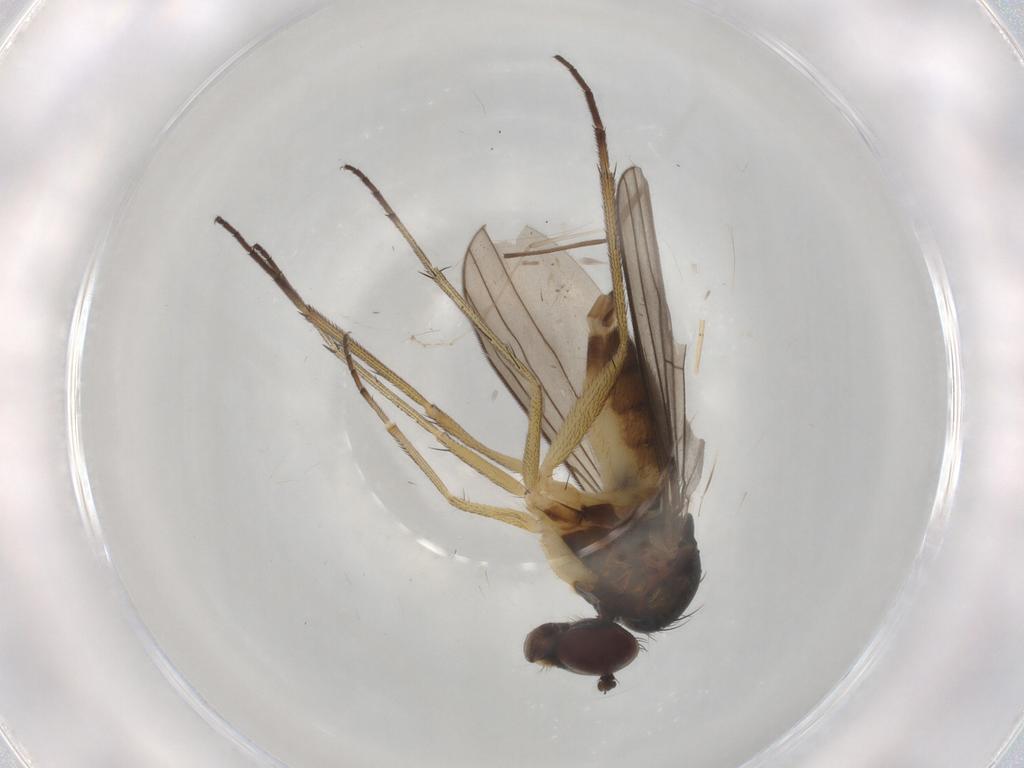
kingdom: Animalia
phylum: Arthropoda
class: Insecta
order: Diptera
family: Dolichopodidae
